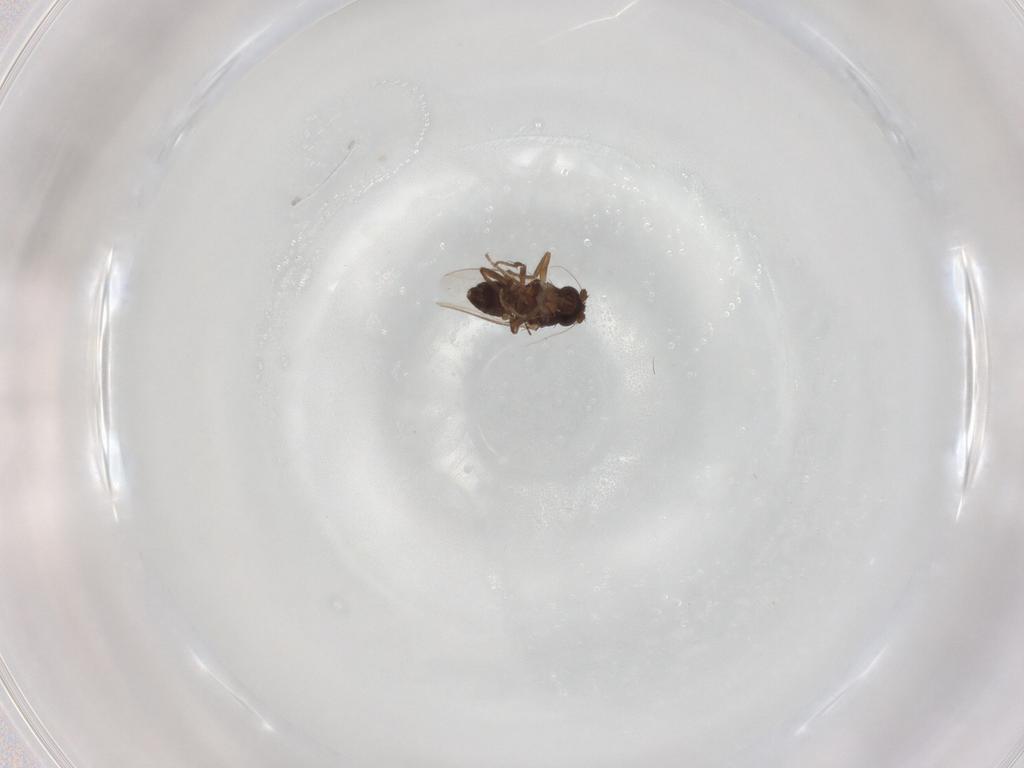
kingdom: Animalia
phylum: Arthropoda
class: Insecta
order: Diptera
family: Sphaeroceridae
